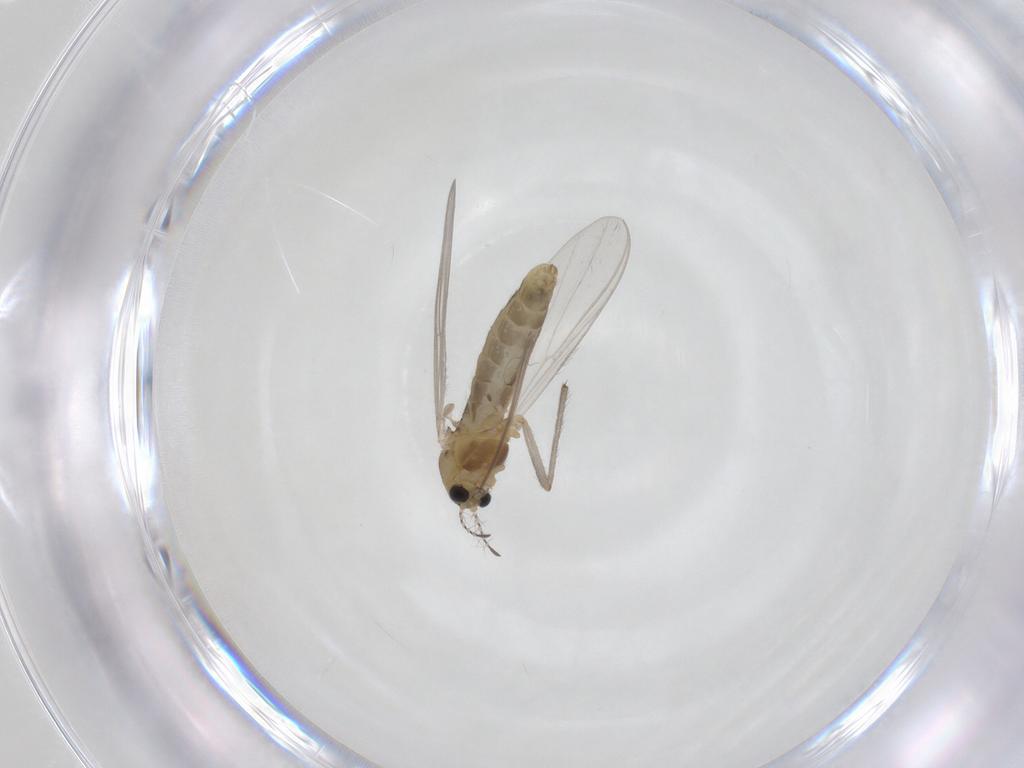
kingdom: Animalia
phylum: Arthropoda
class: Insecta
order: Diptera
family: Chironomidae
